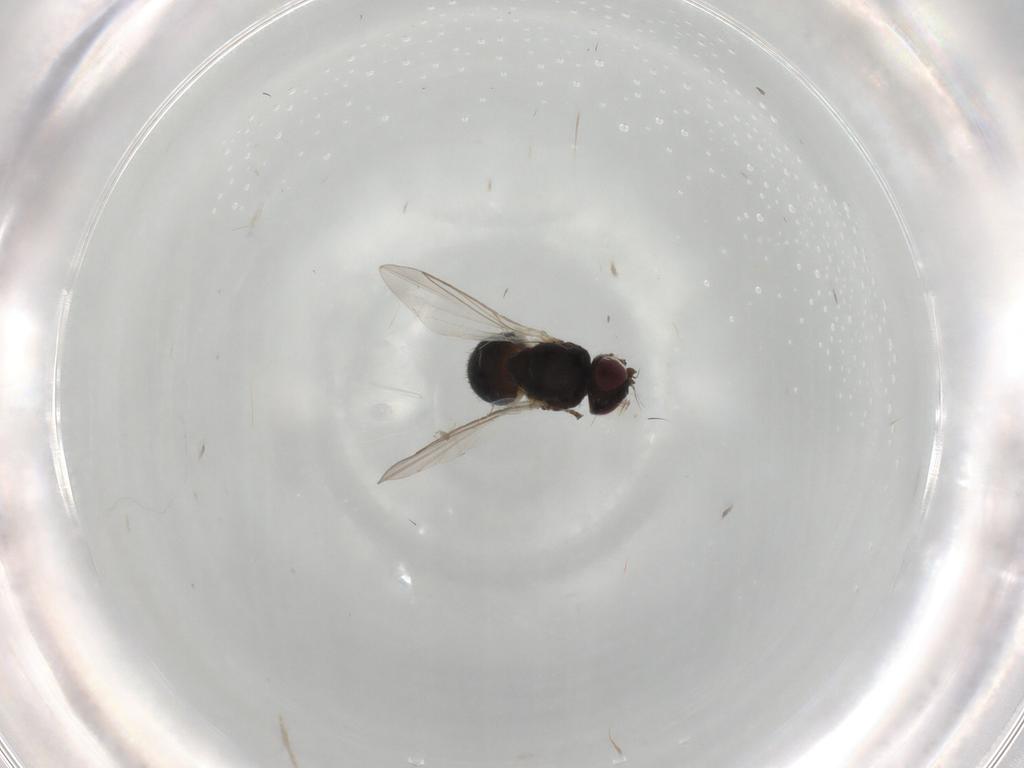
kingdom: Animalia
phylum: Arthropoda
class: Insecta
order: Diptera
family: Agromyzidae
